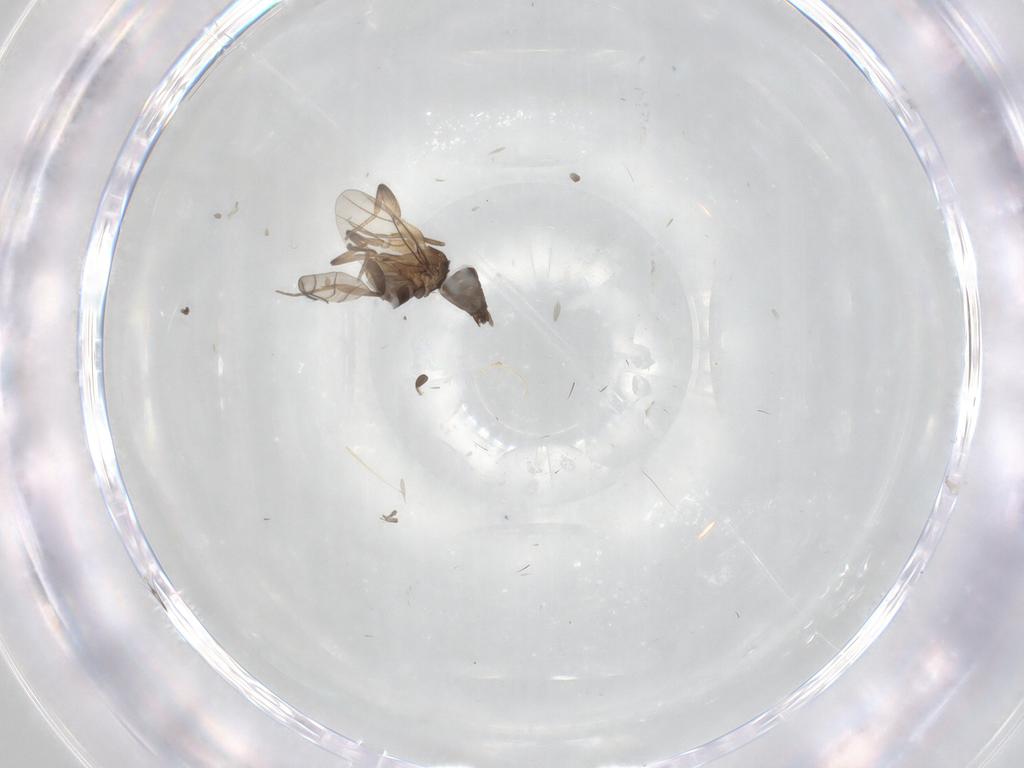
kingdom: Animalia
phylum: Arthropoda
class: Insecta
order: Diptera
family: Phoridae
